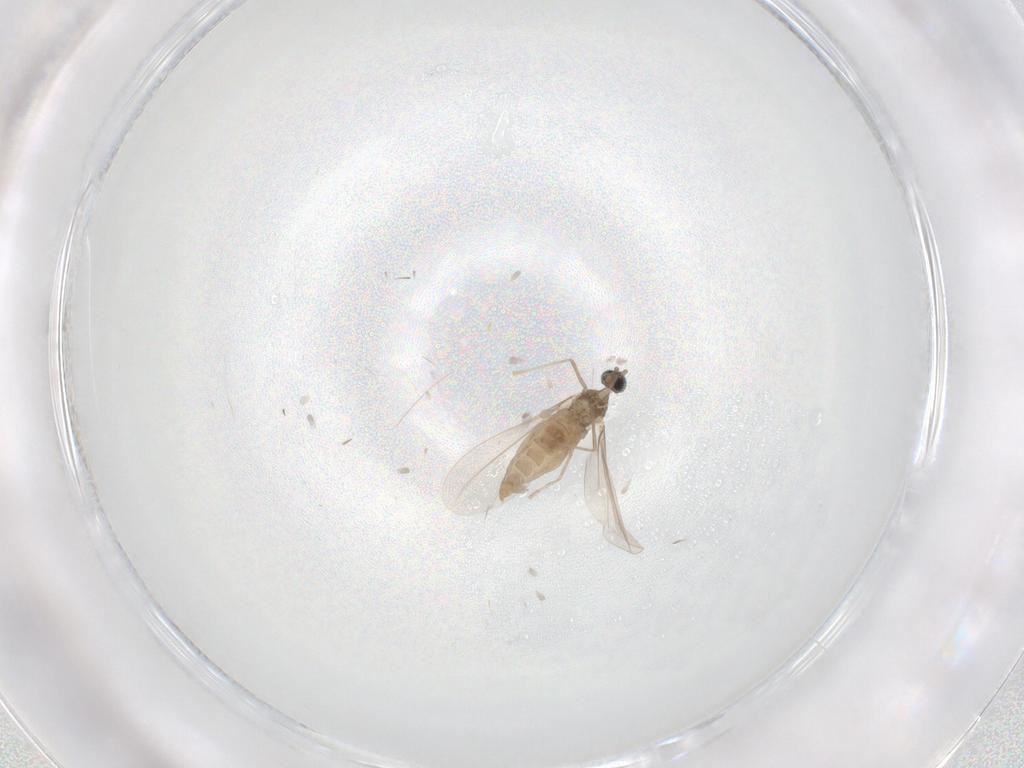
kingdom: Animalia
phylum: Arthropoda
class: Insecta
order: Diptera
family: Cecidomyiidae
